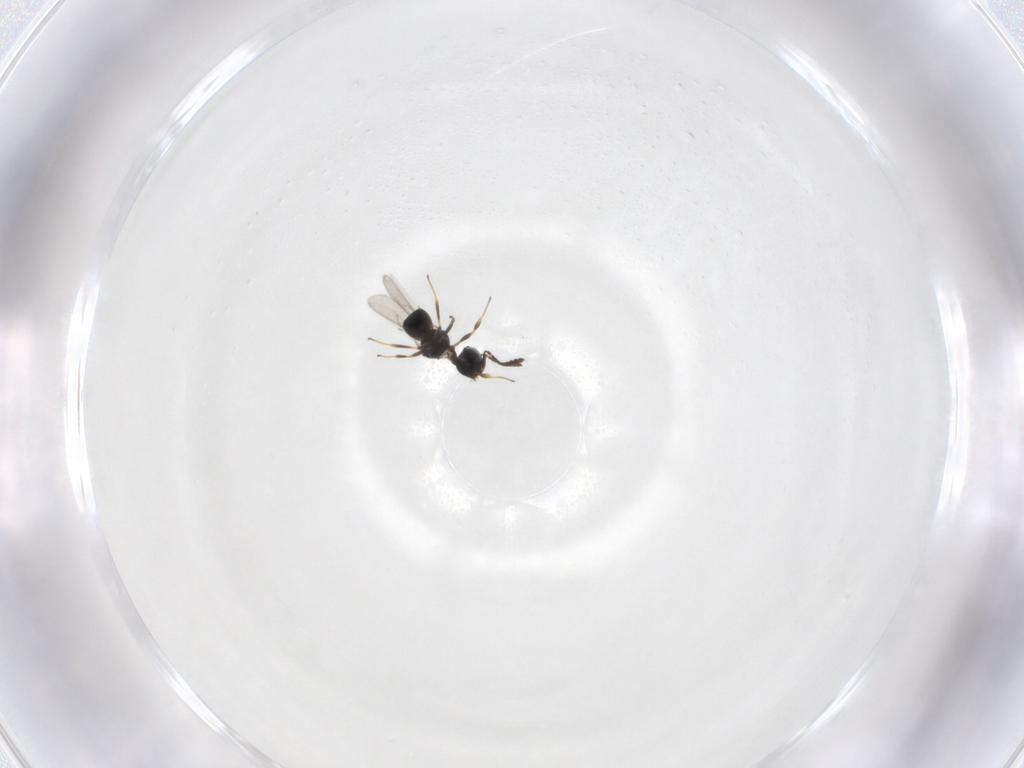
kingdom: Animalia
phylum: Arthropoda
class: Insecta
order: Hymenoptera
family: Scelionidae
